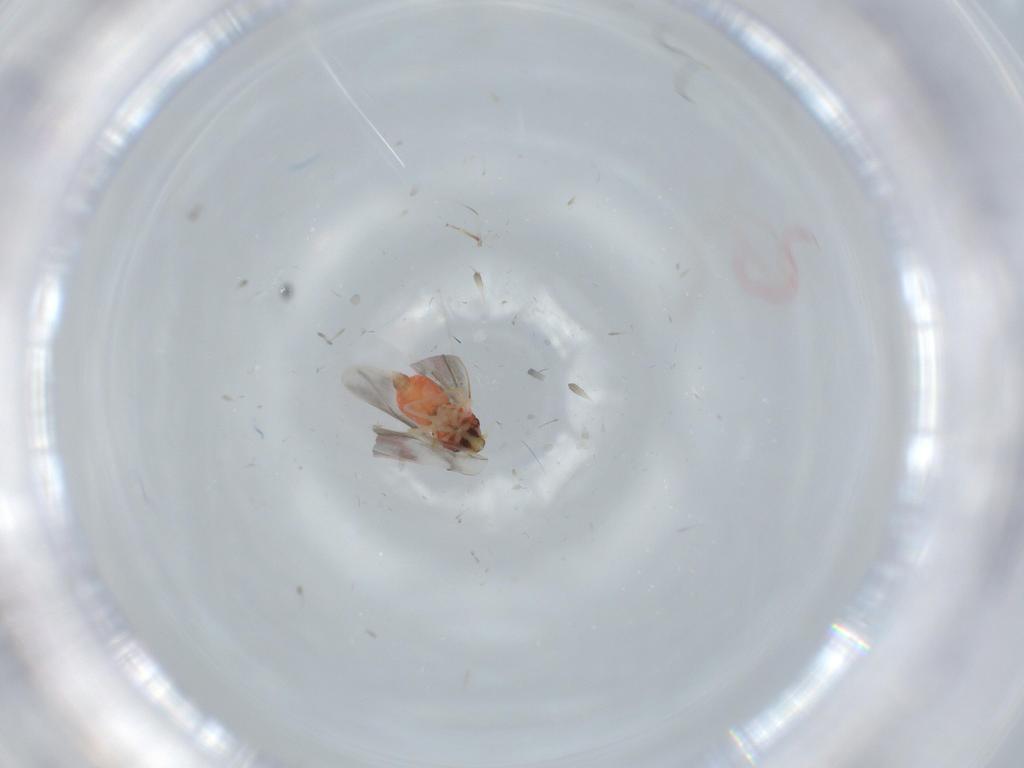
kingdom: Animalia
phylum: Arthropoda
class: Insecta
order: Hemiptera
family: Aleyrodidae
